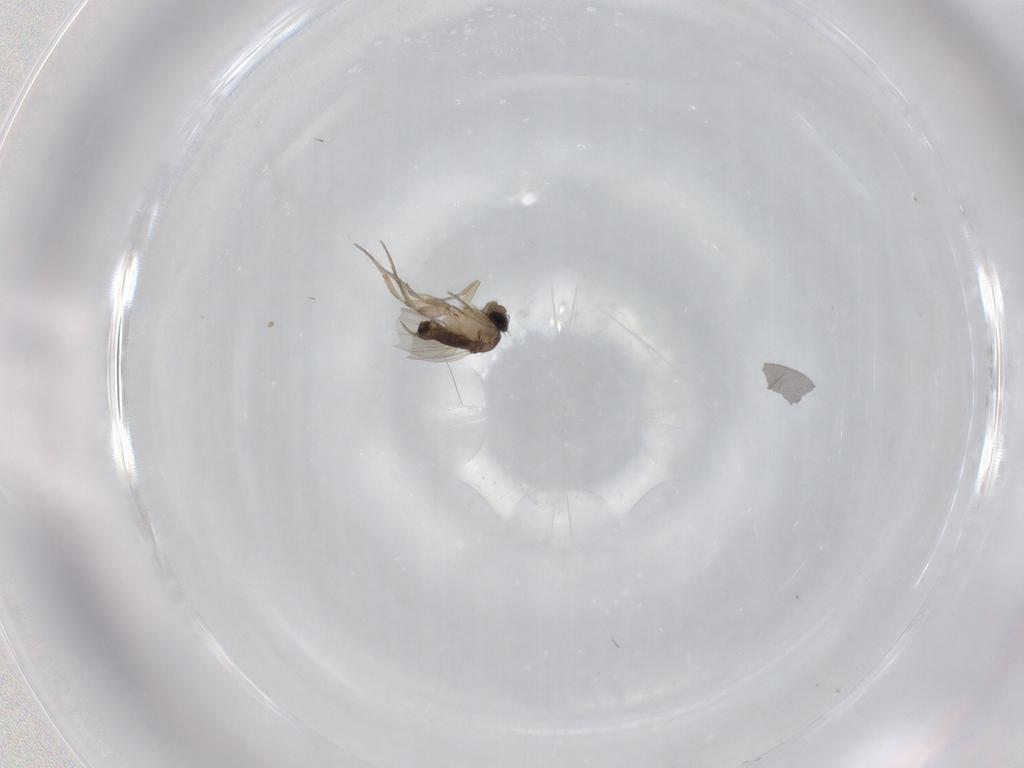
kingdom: Animalia
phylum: Arthropoda
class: Insecta
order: Diptera
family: Phoridae
